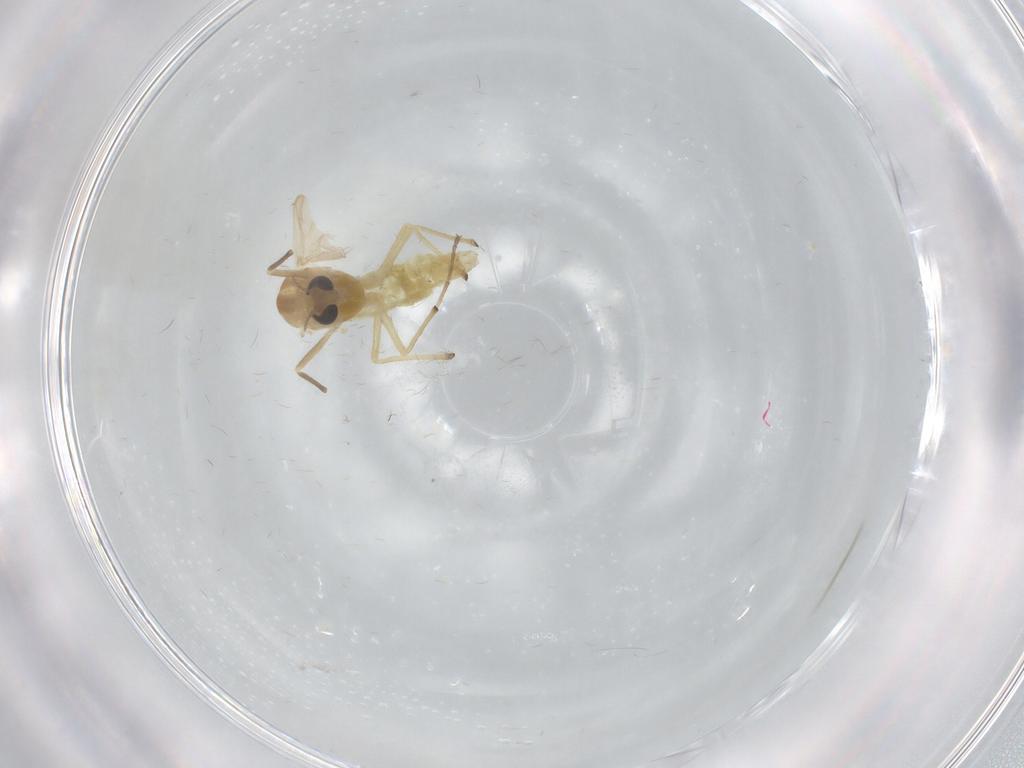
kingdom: Animalia
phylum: Arthropoda
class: Insecta
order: Diptera
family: Chironomidae
